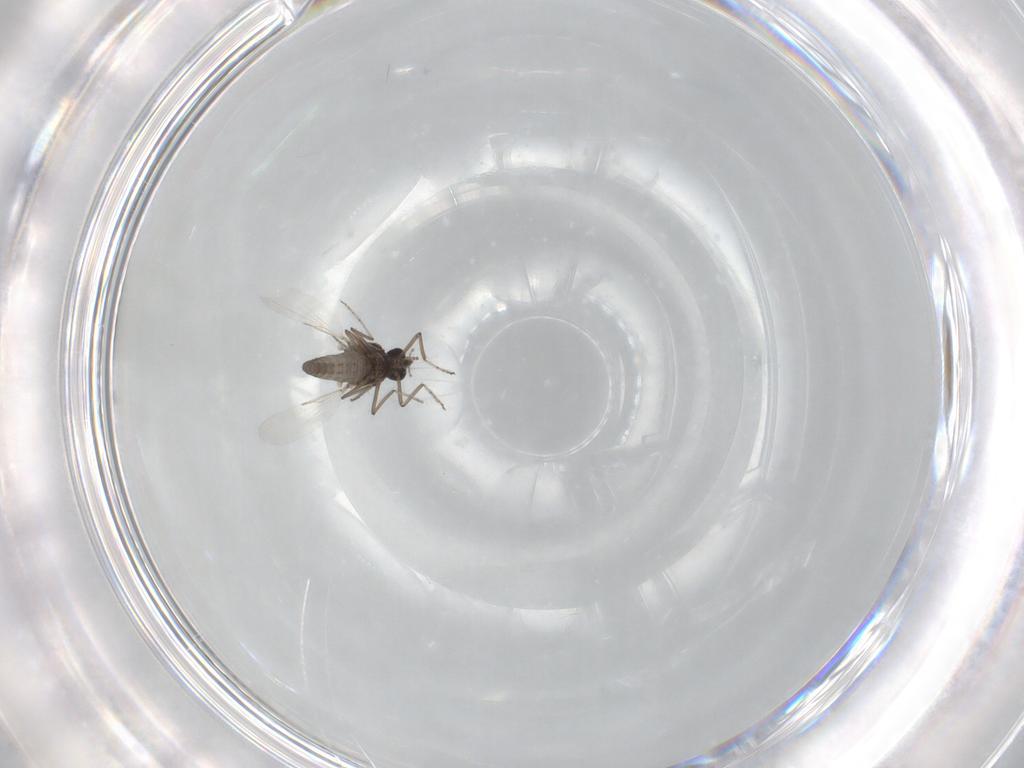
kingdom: Animalia
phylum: Arthropoda
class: Insecta
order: Diptera
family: Ceratopogonidae
